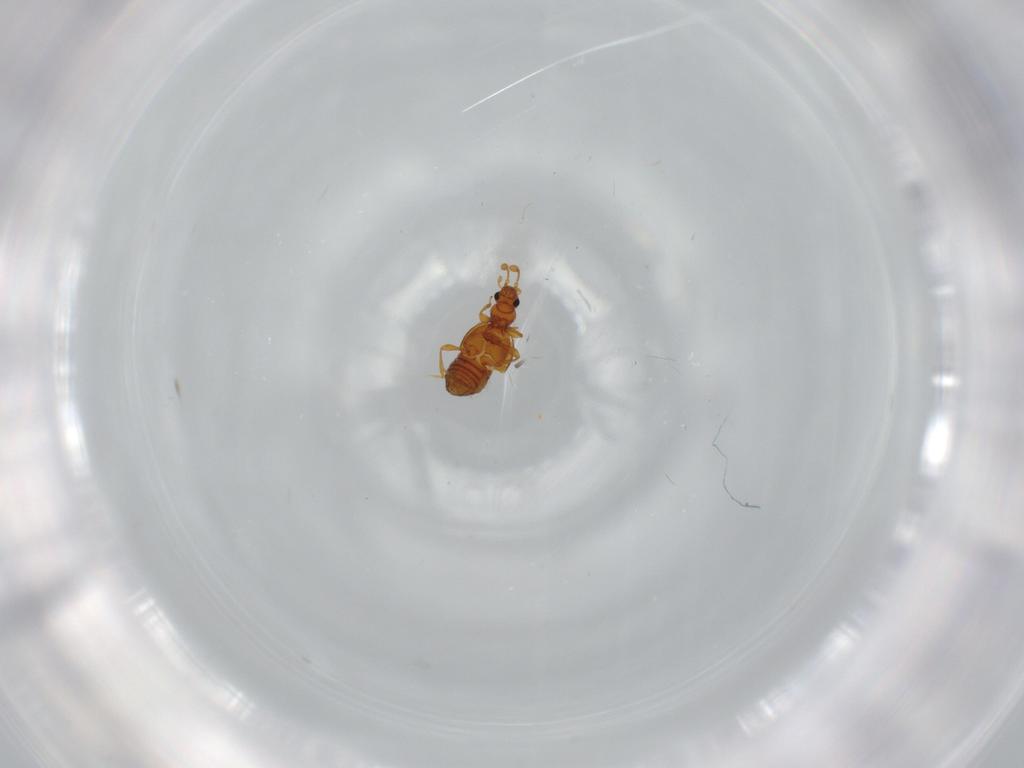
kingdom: Animalia
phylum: Arthropoda
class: Insecta
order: Coleoptera
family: Staphylinidae
